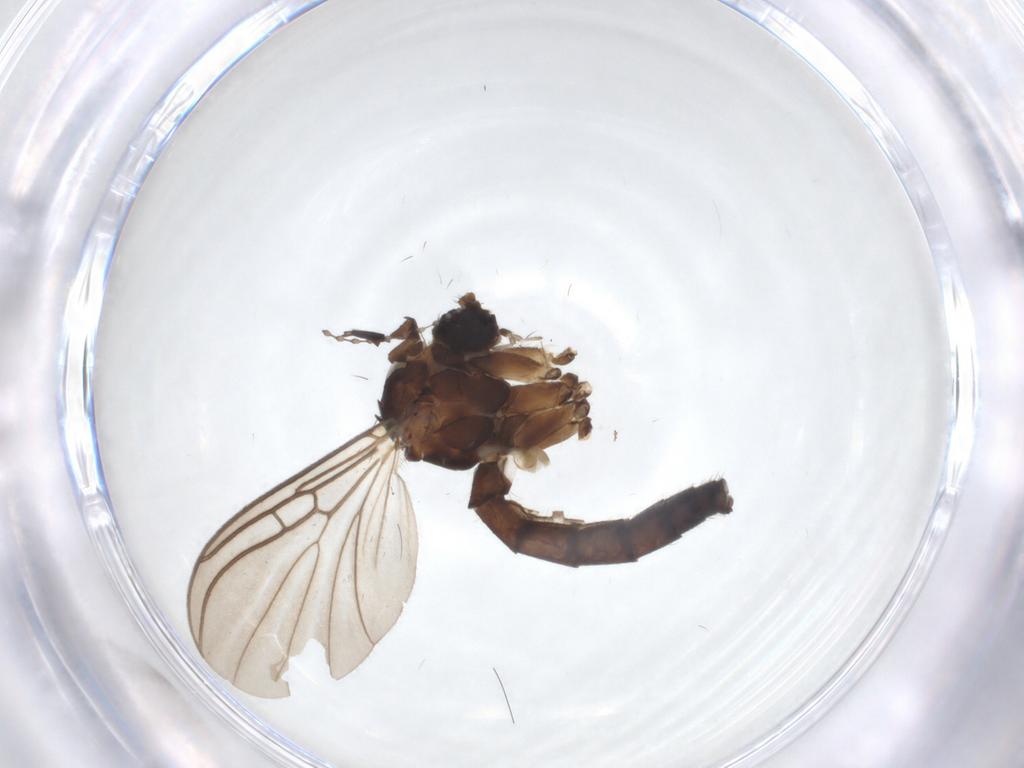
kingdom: Animalia
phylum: Arthropoda
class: Insecta
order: Diptera
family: Mycetophilidae
